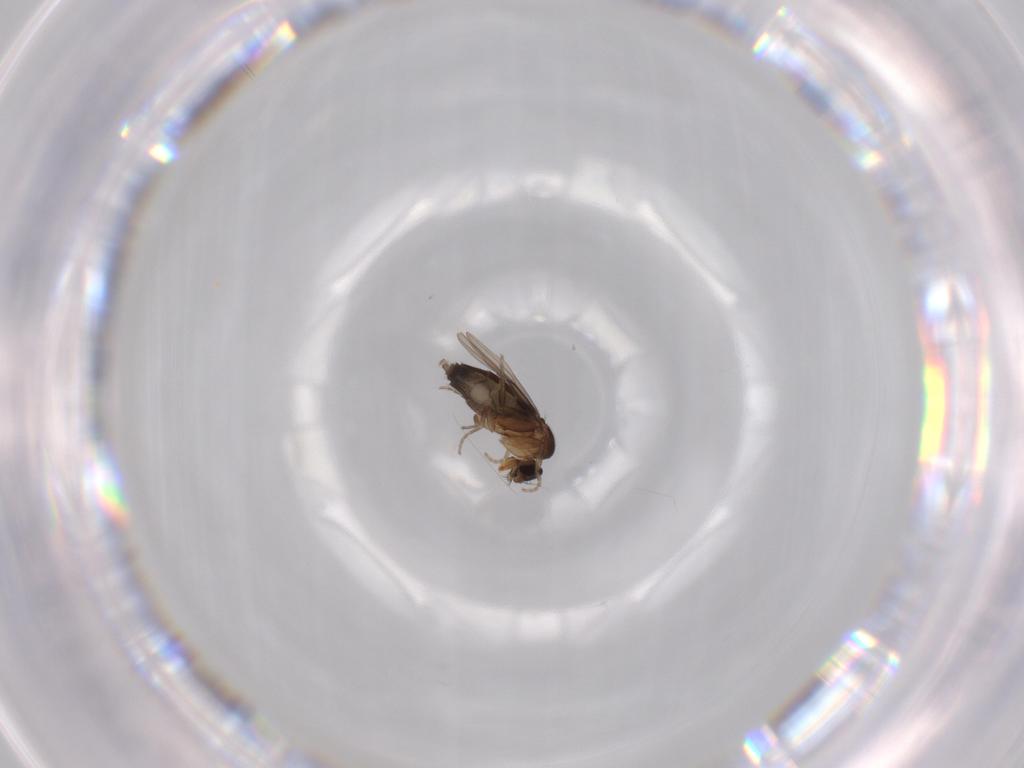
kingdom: Animalia
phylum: Arthropoda
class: Insecta
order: Diptera
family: Phoridae
